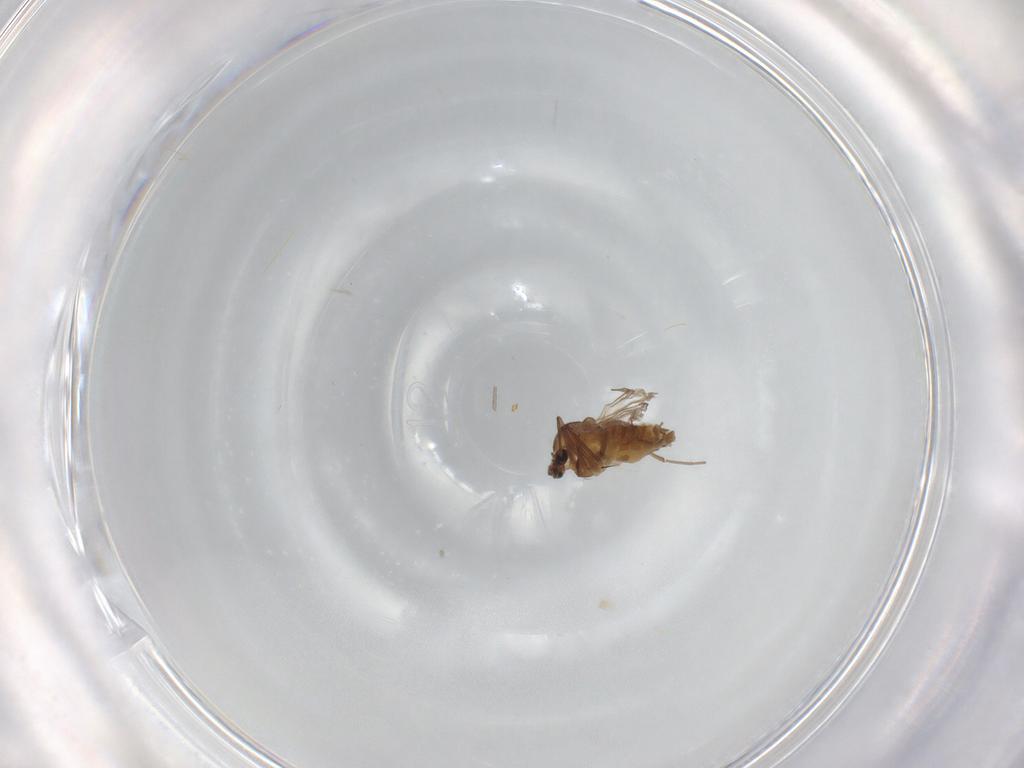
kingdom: Animalia
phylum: Arthropoda
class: Insecta
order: Diptera
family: Chironomidae
